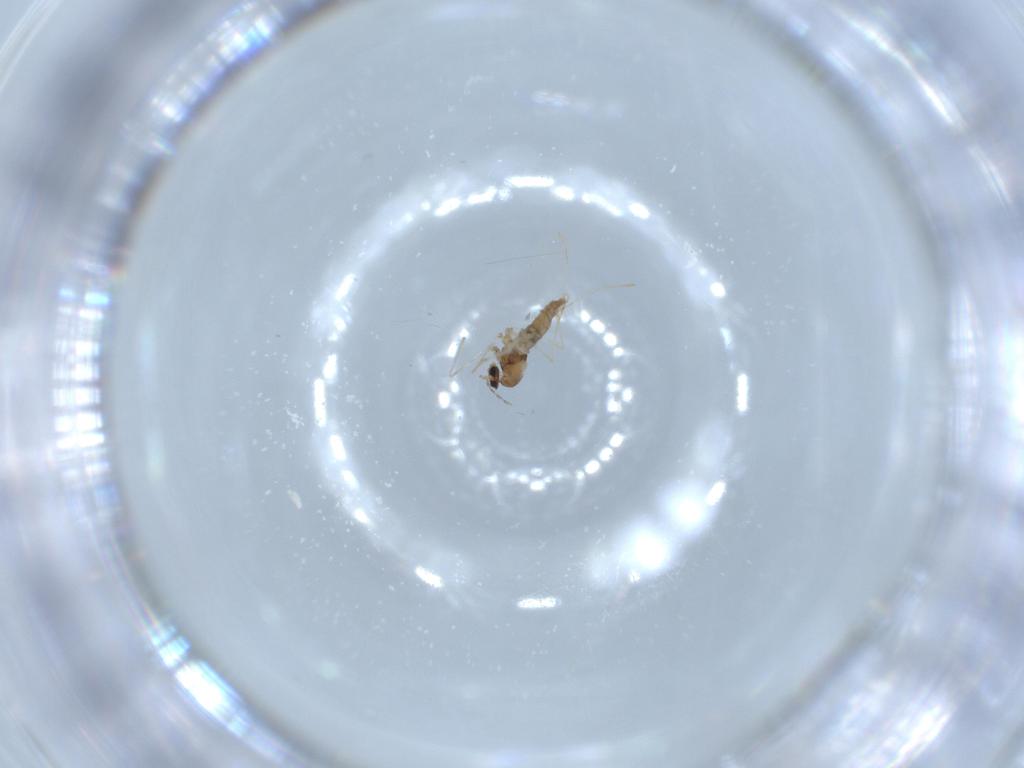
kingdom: Animalia
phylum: Arthropoda
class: Insecta
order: Diptera
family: Cecidomyiidae
